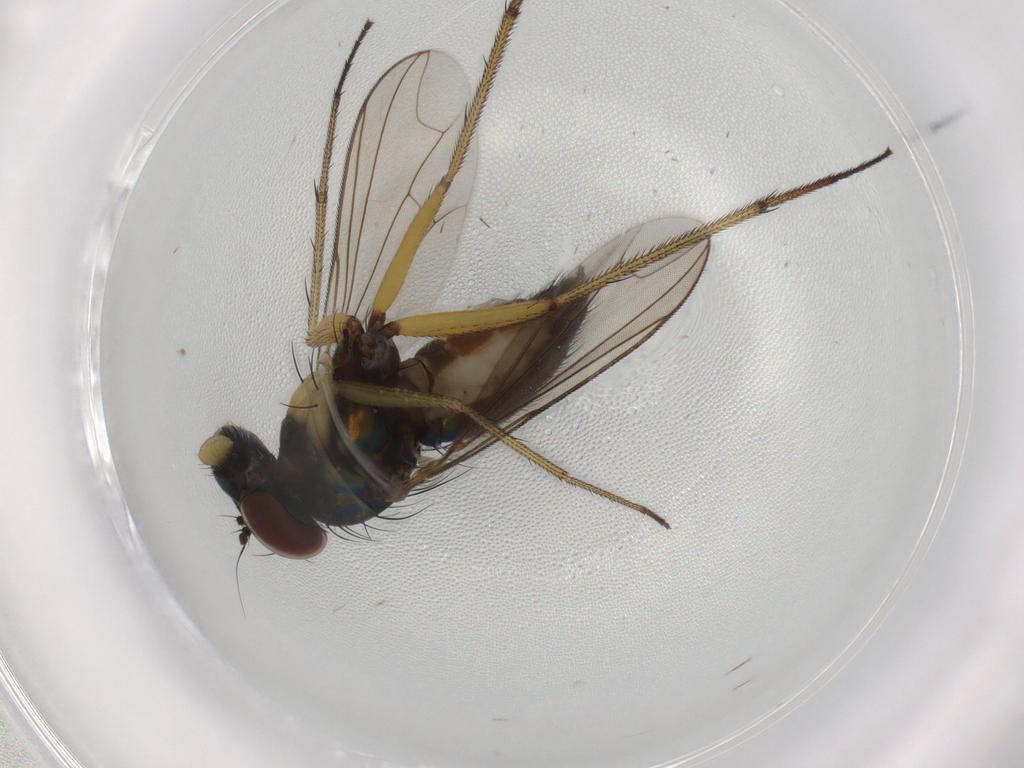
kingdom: Animalia
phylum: Arthropoda
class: Insecta
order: Diptera
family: Dolichopodidae
